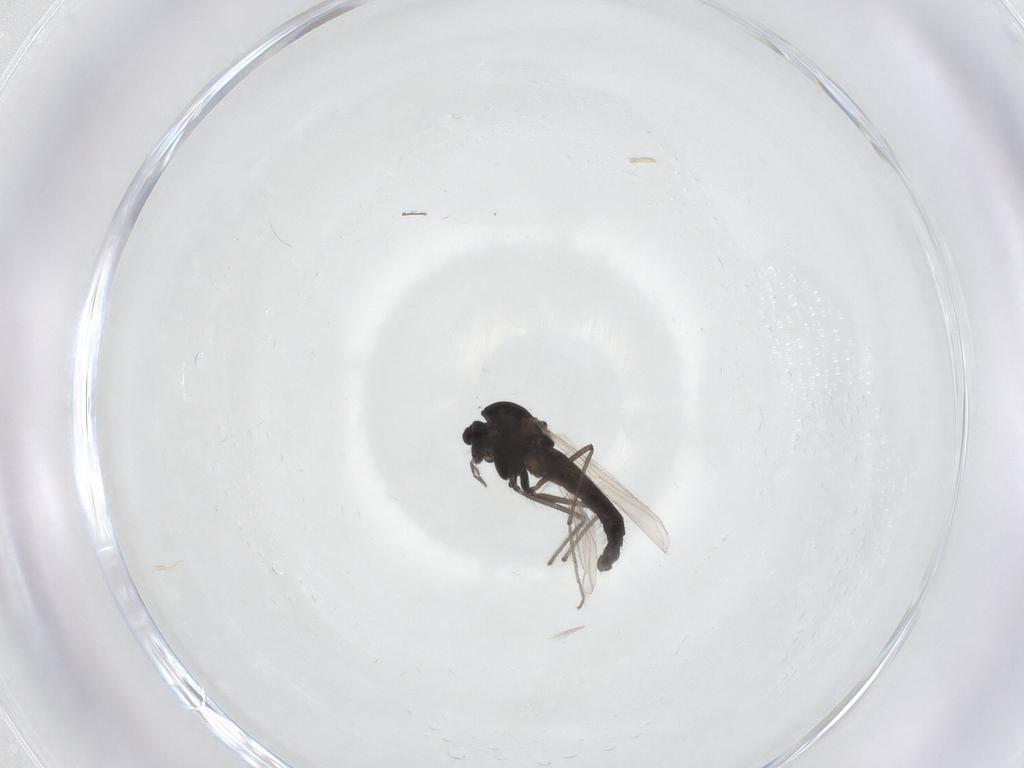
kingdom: Animalia
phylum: Arthropoda
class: Insecta
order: Diptera
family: Chironomidae
